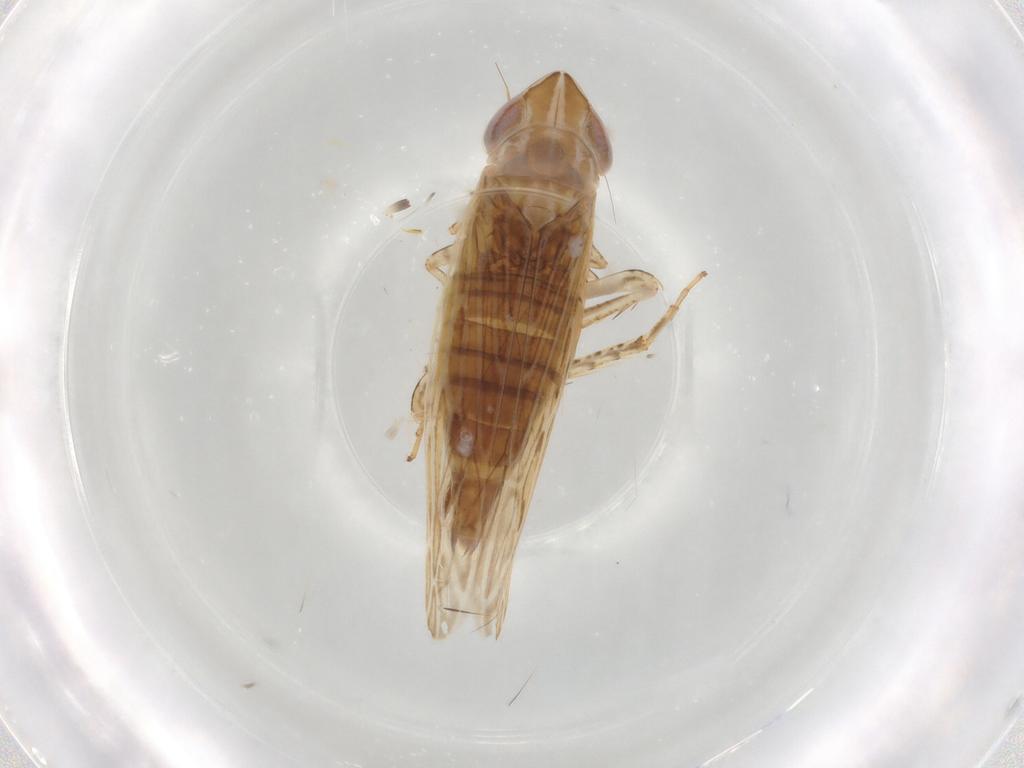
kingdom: Animalia
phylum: Arthropoda
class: Insecta
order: Hemiptera
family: Cicadellidae
